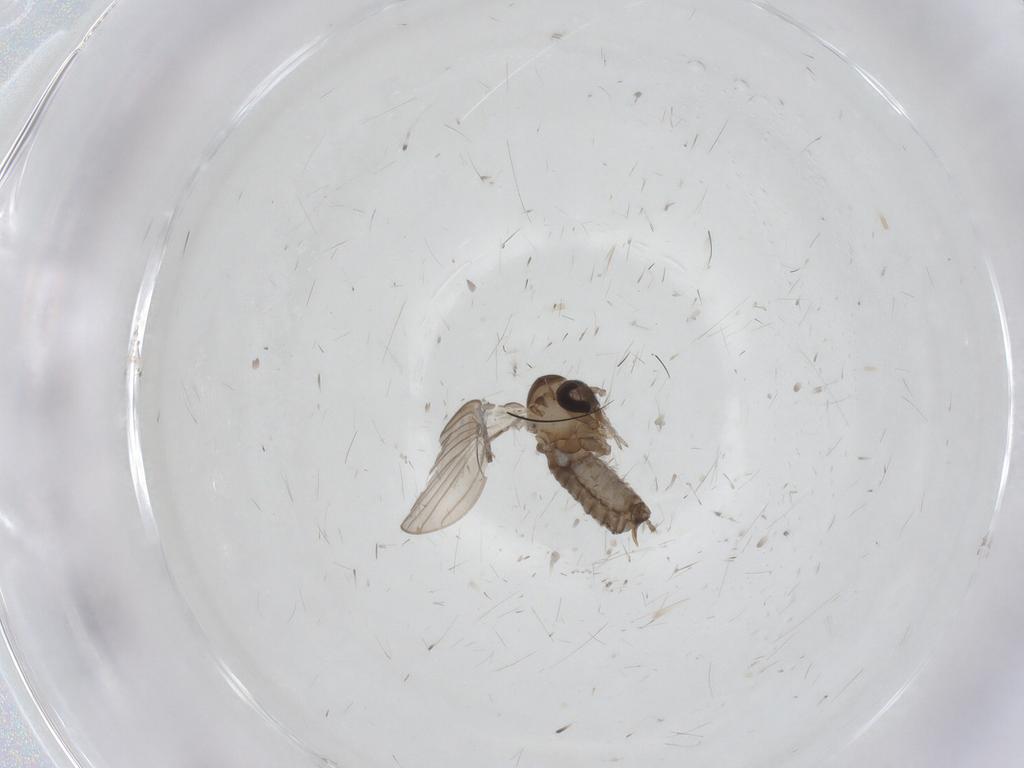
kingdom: Animalia
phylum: Arthropoda
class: Insecta
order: Diptera
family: Psychodidae
